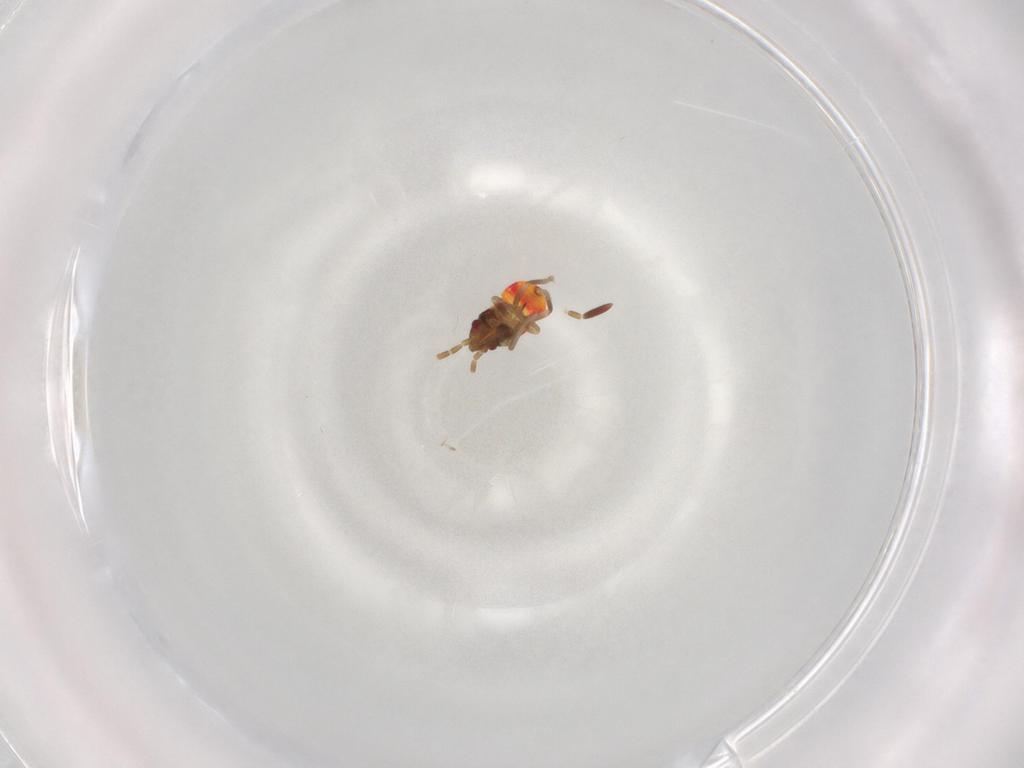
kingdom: Animalia
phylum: Arthropoda
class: Insecta
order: Hemiptera
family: Rhyparochromidae
